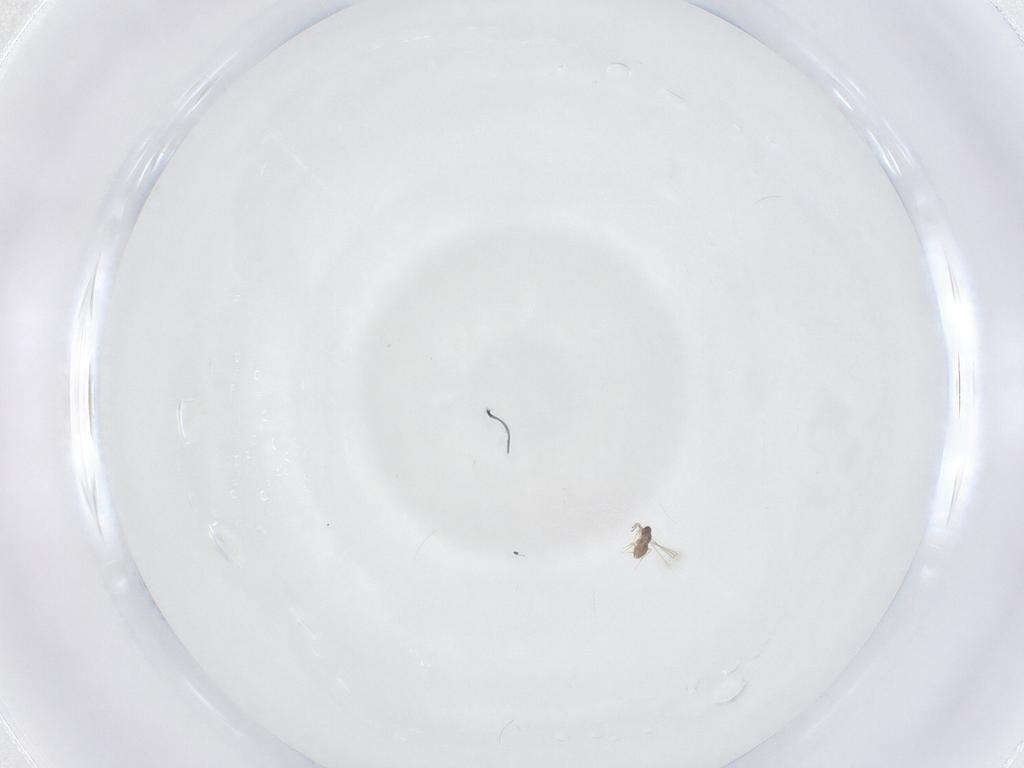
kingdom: Animalia
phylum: Arthropoda
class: Insecta
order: Hymenoptera
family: Mymaridae
